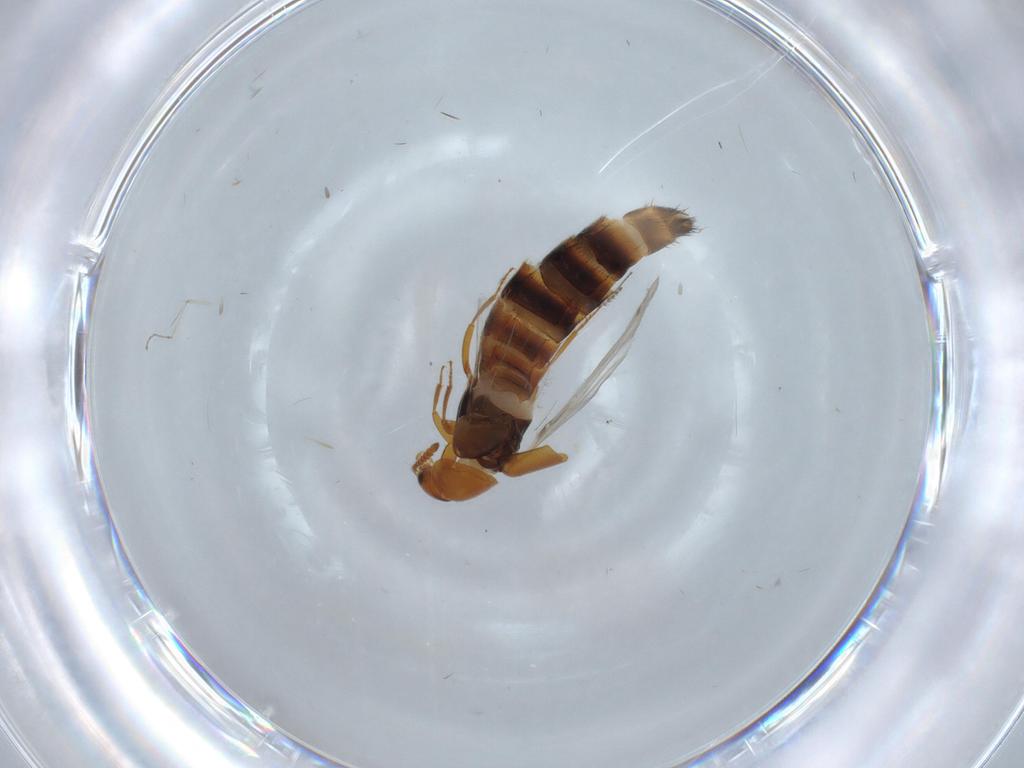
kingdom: Animalia
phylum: Arthropoda
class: Insecta
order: Coleoptera
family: Staphylinidae
